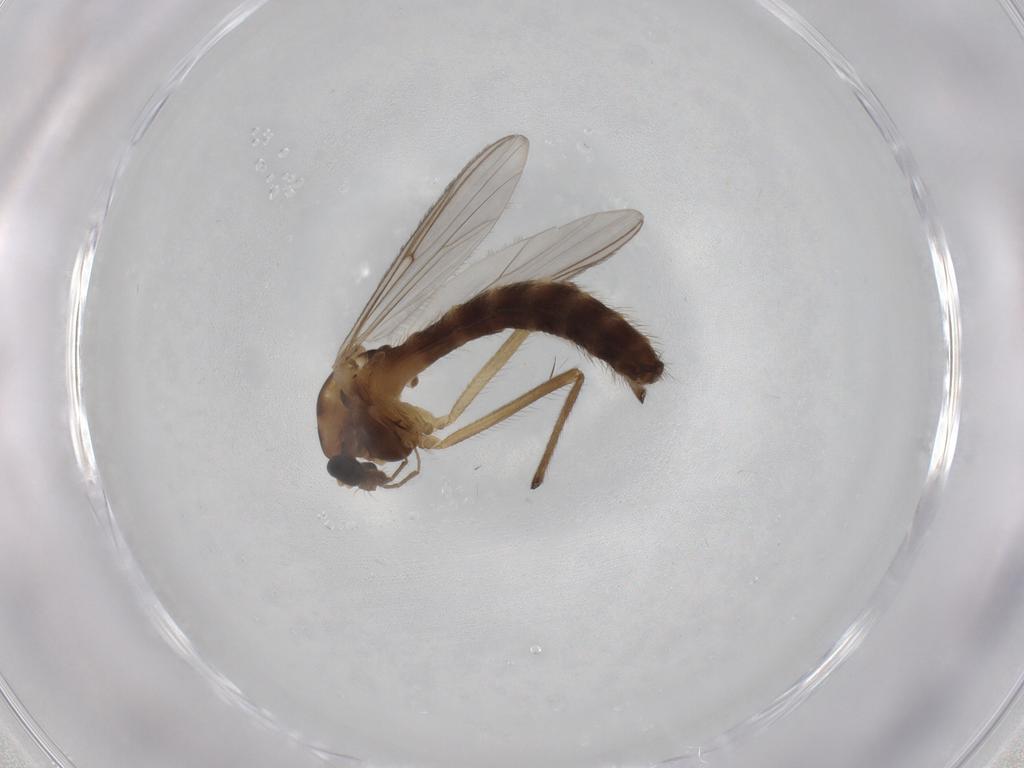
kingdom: Animalia
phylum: Arthropoda
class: Insecta
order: Diptera
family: Chironomidae
